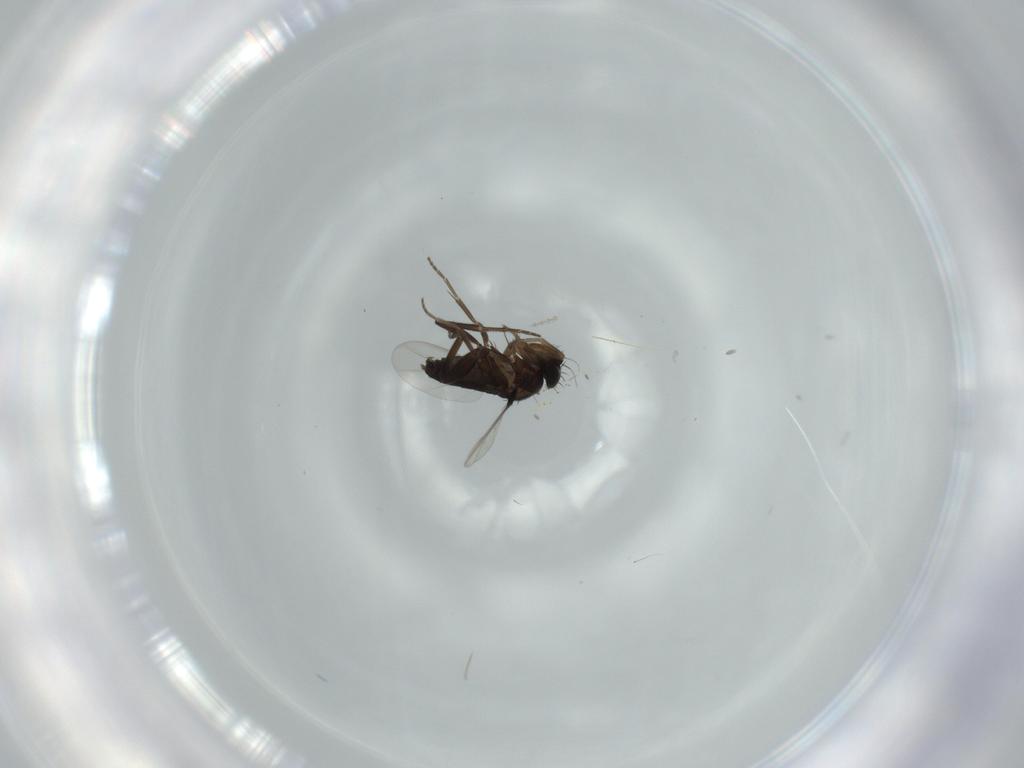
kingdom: Animalia
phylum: Arthropoda
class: Insecta
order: Diptera
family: Phoridae
